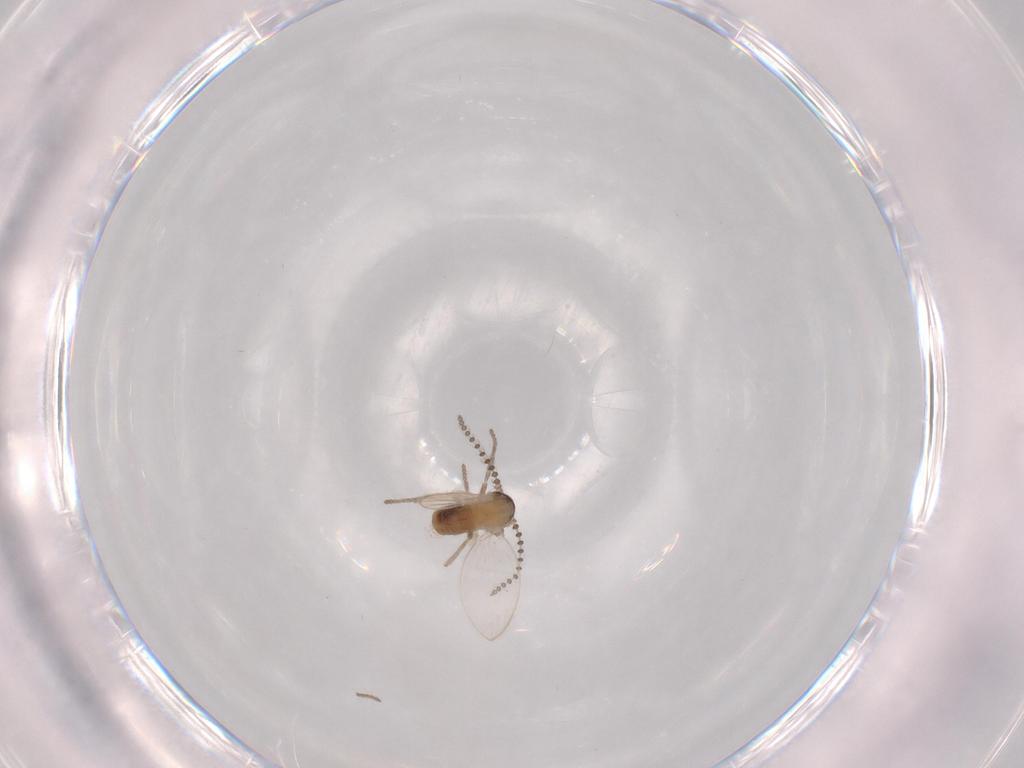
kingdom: Animalia
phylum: Arthropoda
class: Insecta
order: Diptera
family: Psychodidae
